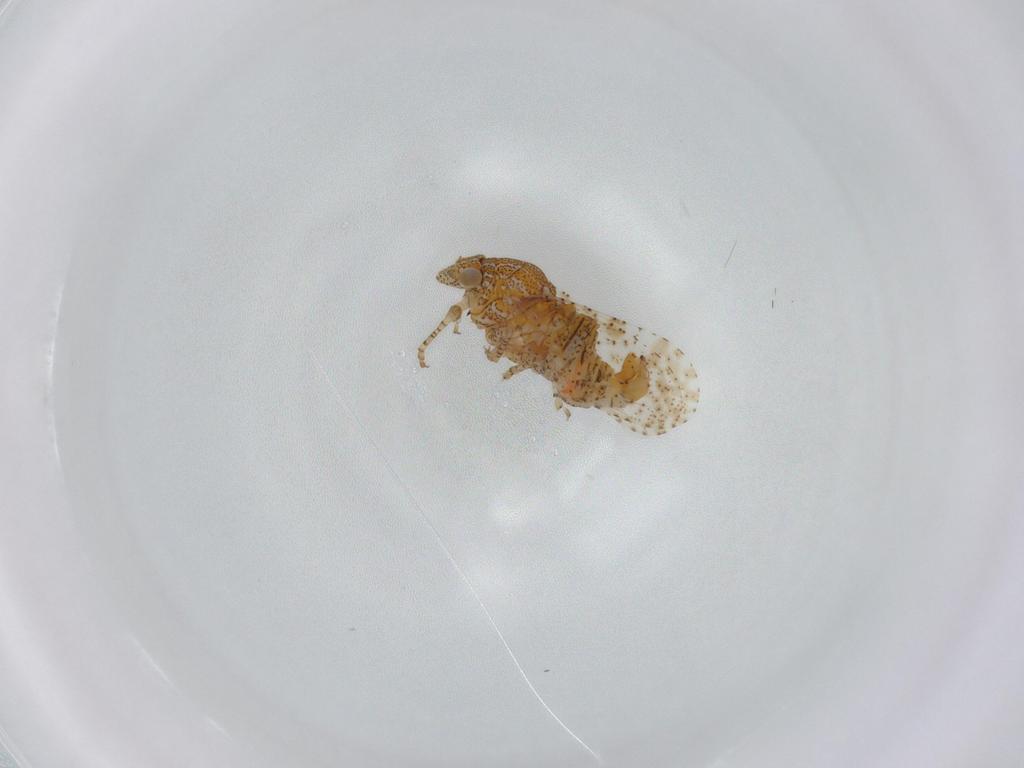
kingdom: Animalia
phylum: Arthropoda
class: Insecta
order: Hemiptera
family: Psyllidae
